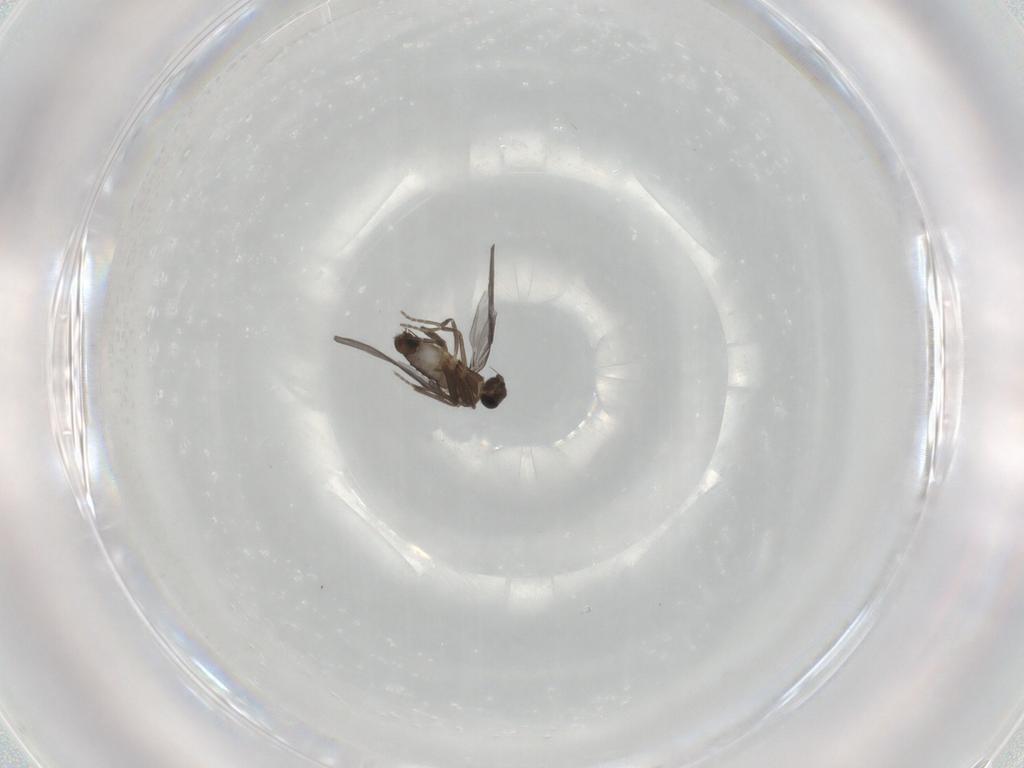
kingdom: Animalia
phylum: Arthropoda
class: Insecta
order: Diptera
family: Phoridae
